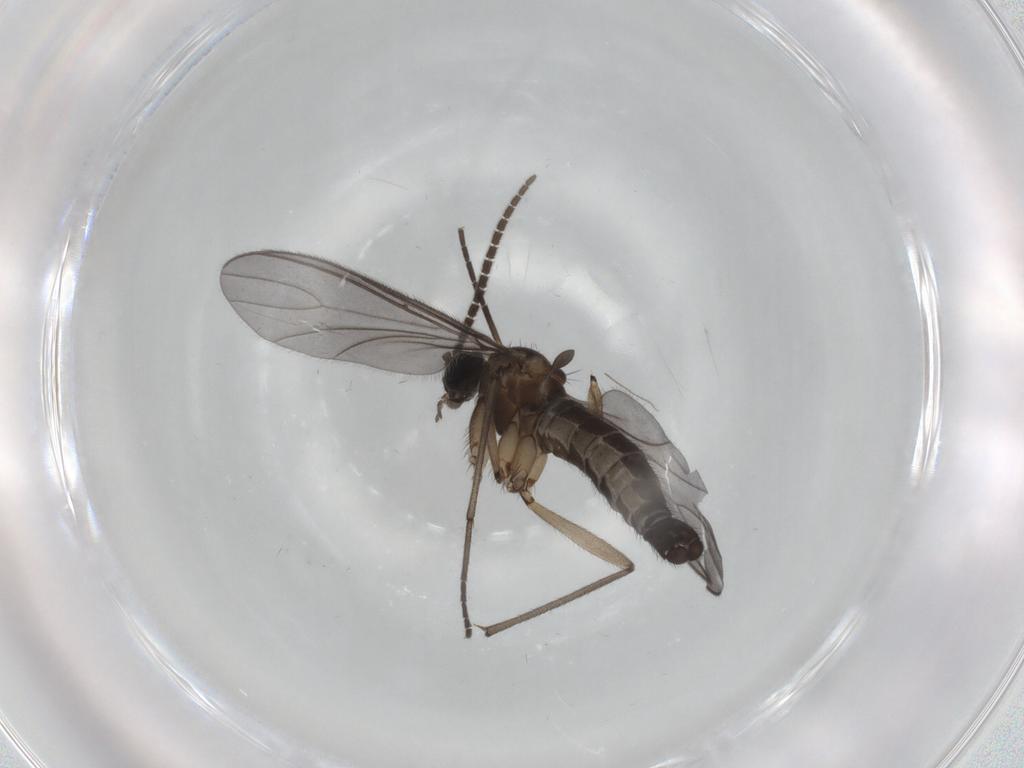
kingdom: Animalia
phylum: Arthropoda
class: Insecta
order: Diptera
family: Sciaridae
